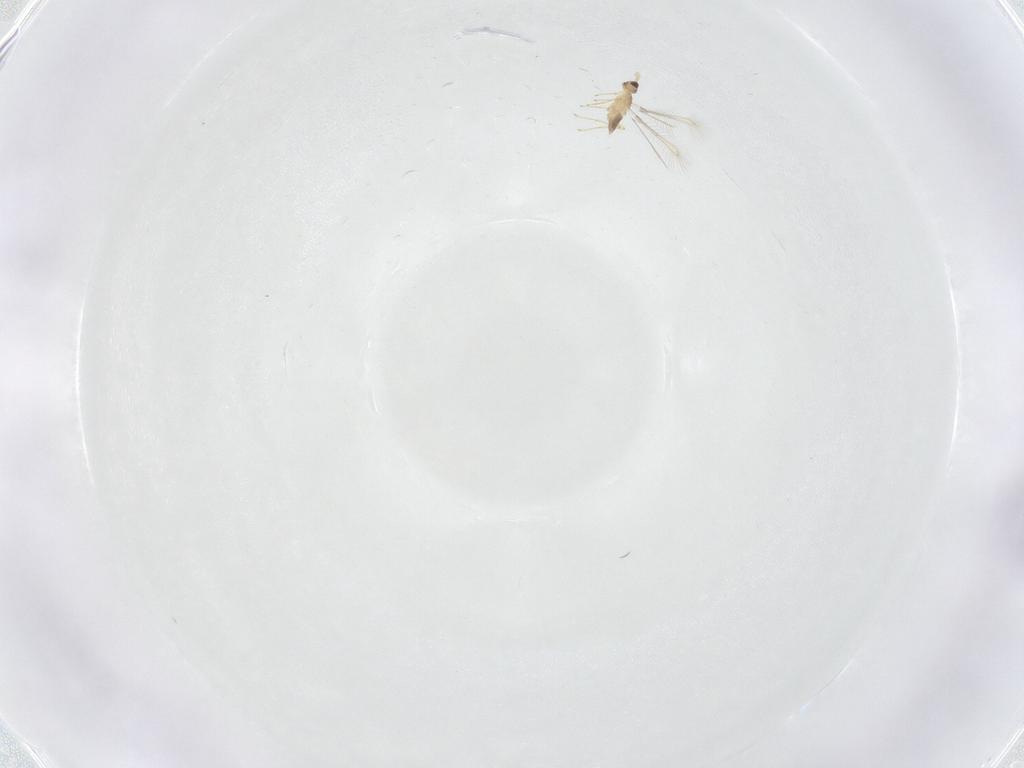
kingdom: Animalia
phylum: Arthropoda
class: Insecta
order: Hymenoptera
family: Mymaridae
